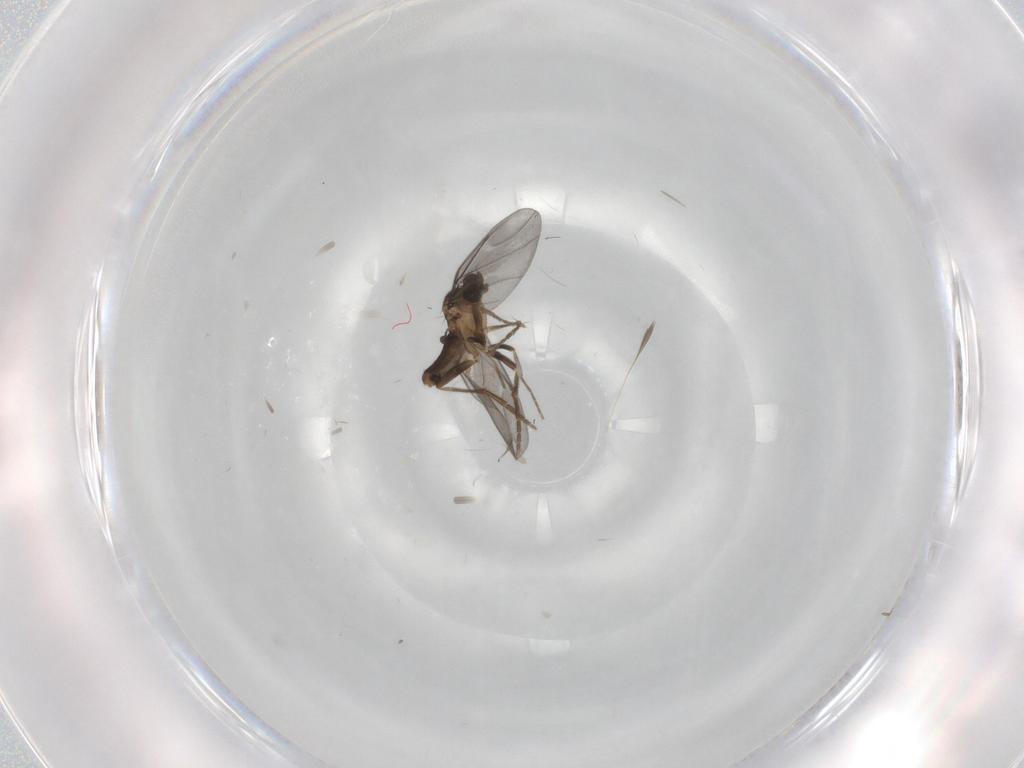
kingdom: Animalia
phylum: Arthropoda
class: Insecta
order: Diptera
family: Phoridae
